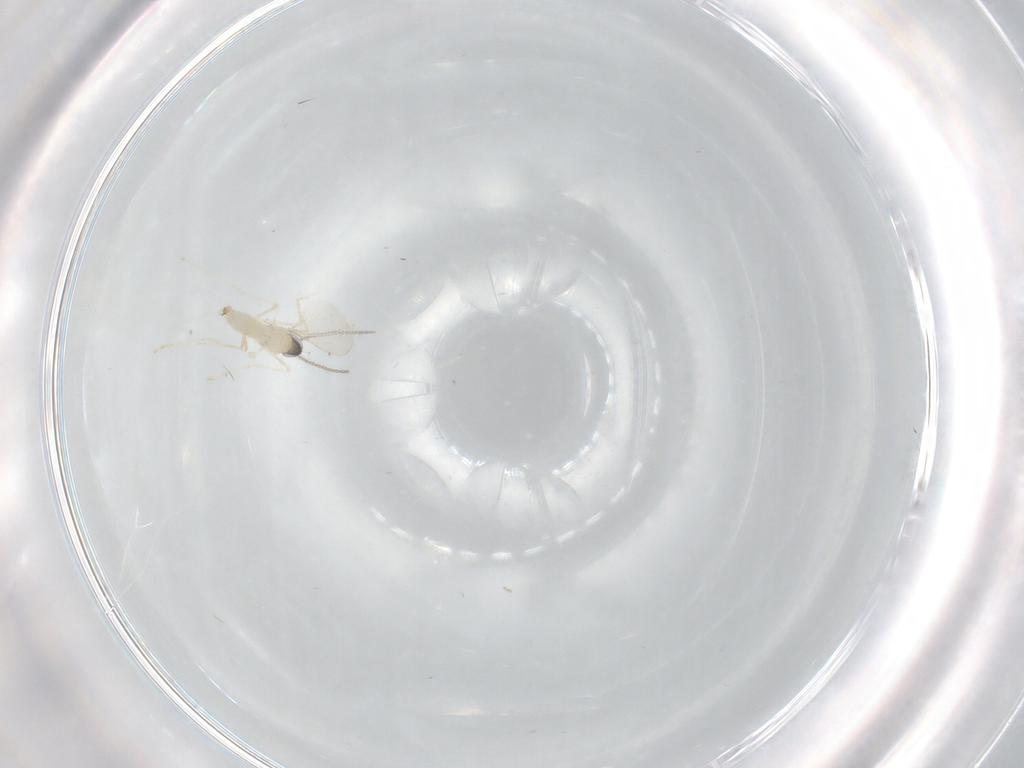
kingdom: Animalia
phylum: Arthropoda
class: Insecta
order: Diptera
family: Cecidomyiidae
